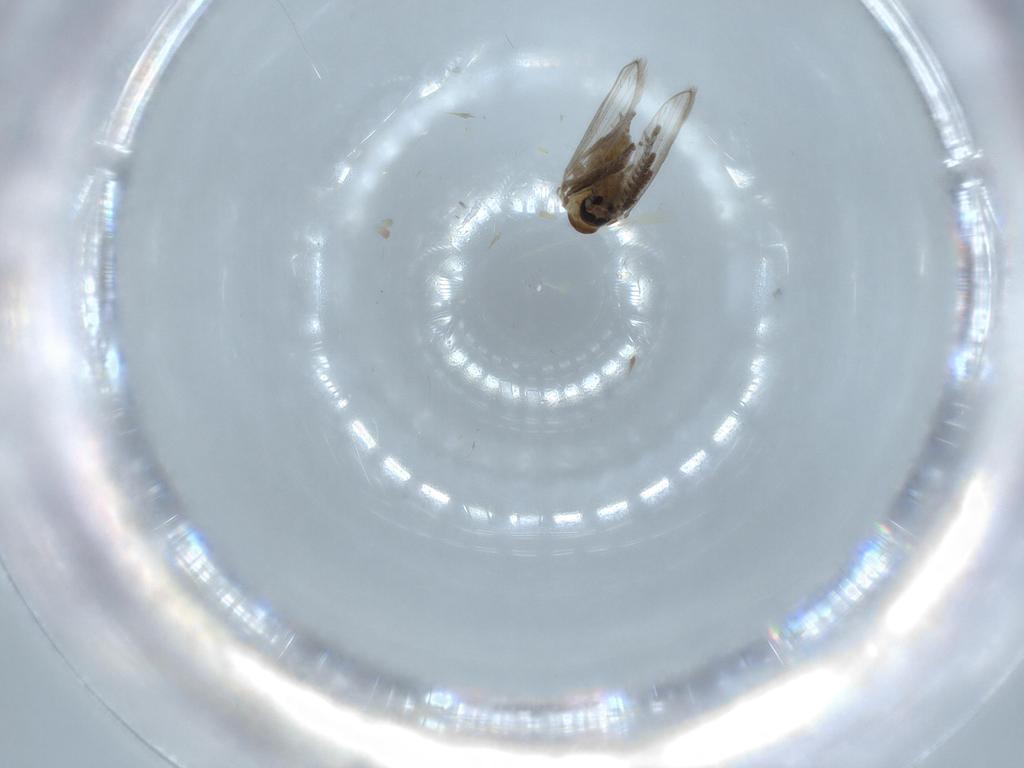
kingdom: Animalia
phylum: Arthropoda
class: Insecta
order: Diptera
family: Psychodidae
